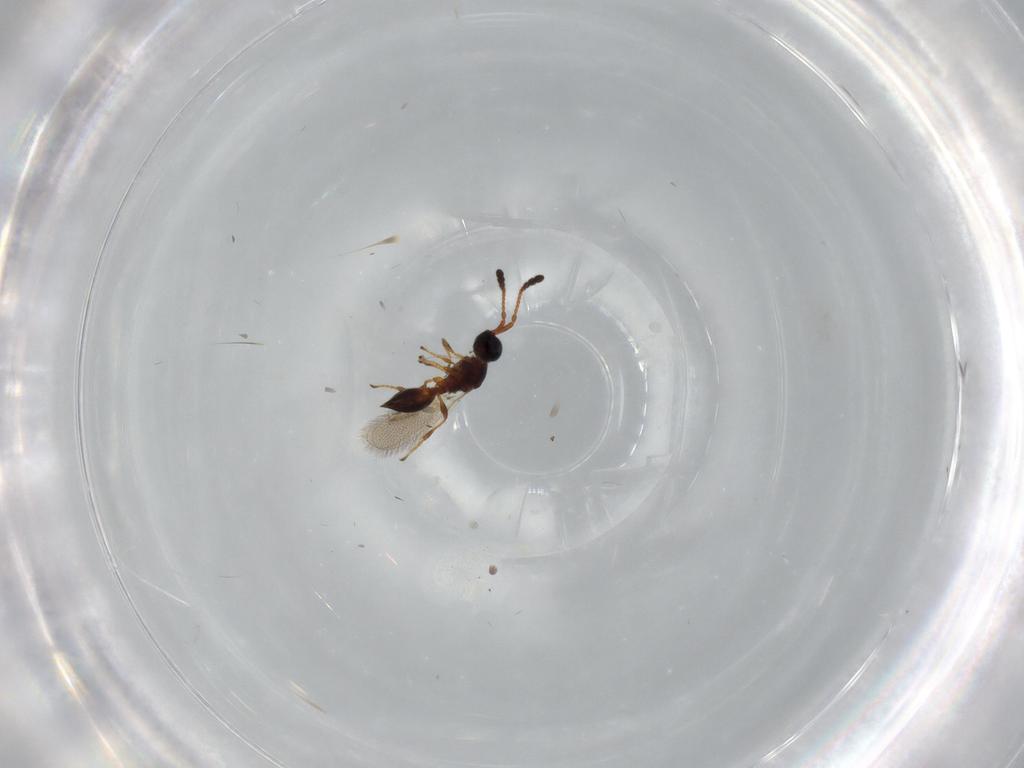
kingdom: Animalia
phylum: Arthropoda
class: Insecta
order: Hymenoptera
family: Diapriidae
